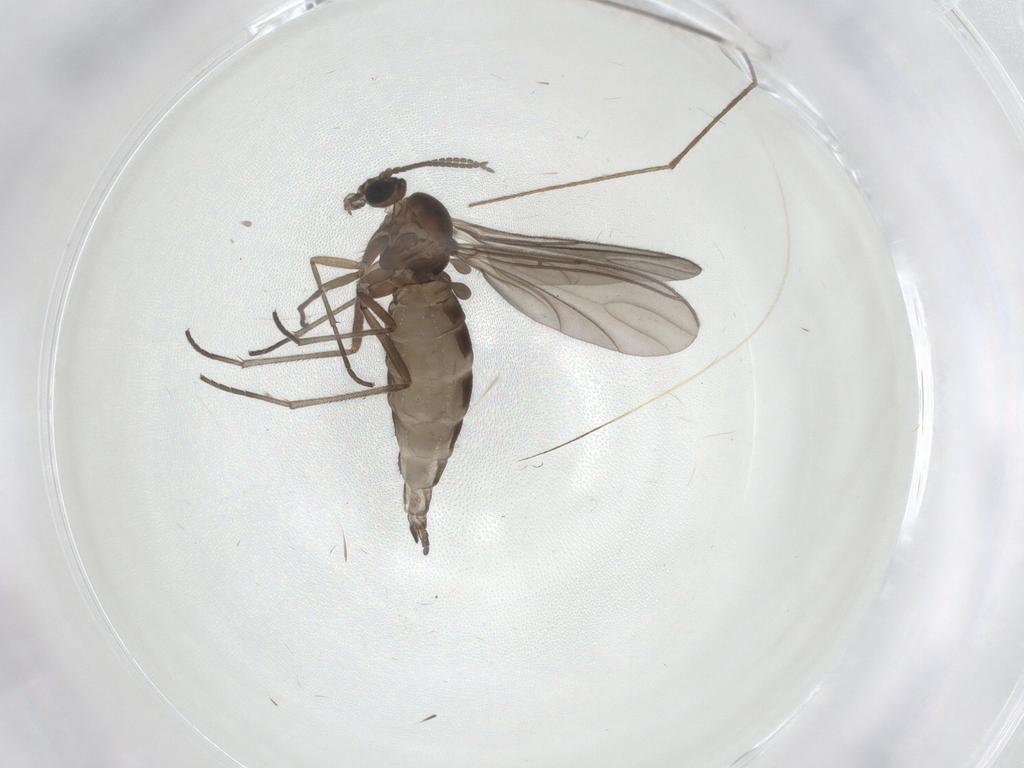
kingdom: Animalia
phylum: Arthropoda
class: Insecta
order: Diptera
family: Sciaridae
